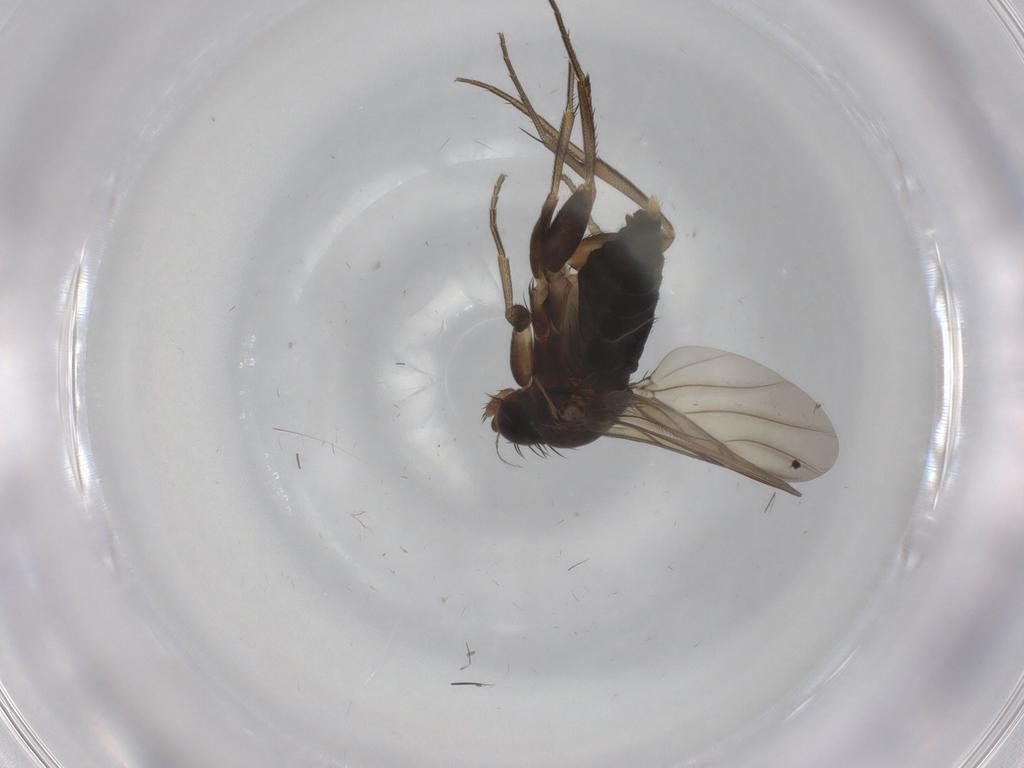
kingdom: Animalia
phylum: Arthropoda
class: Insecta
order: Diptera
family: Phoridae
